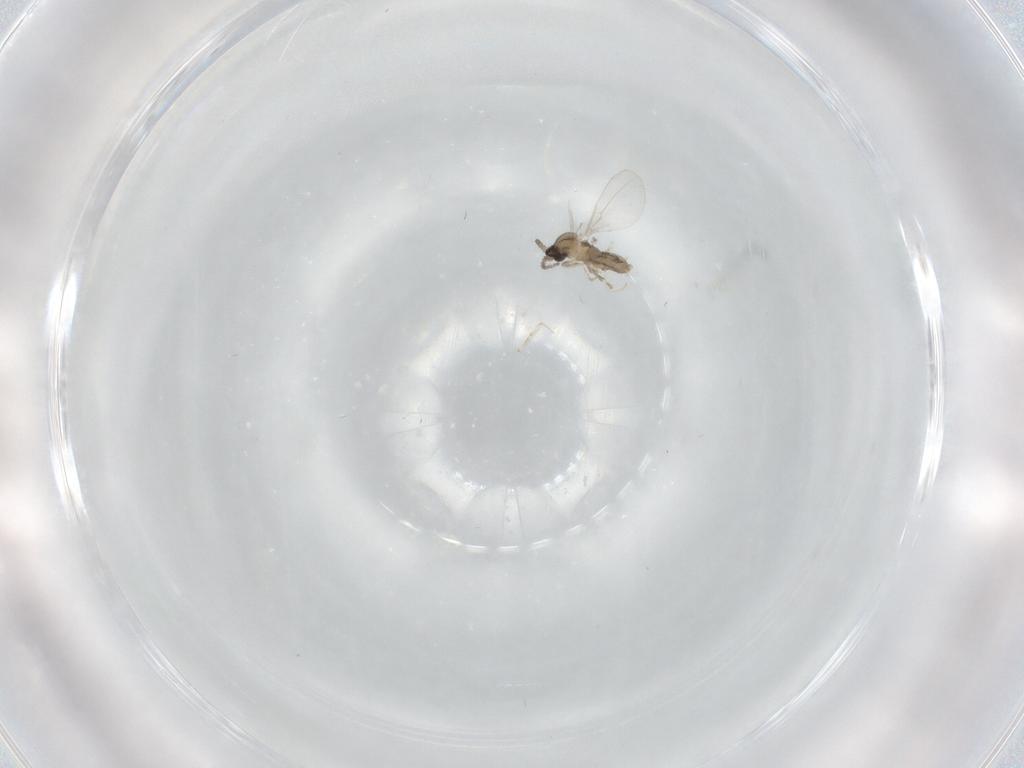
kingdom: Animalia
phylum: Arthropoda
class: Insecta
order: Diptera
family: Cecidomyiidae
